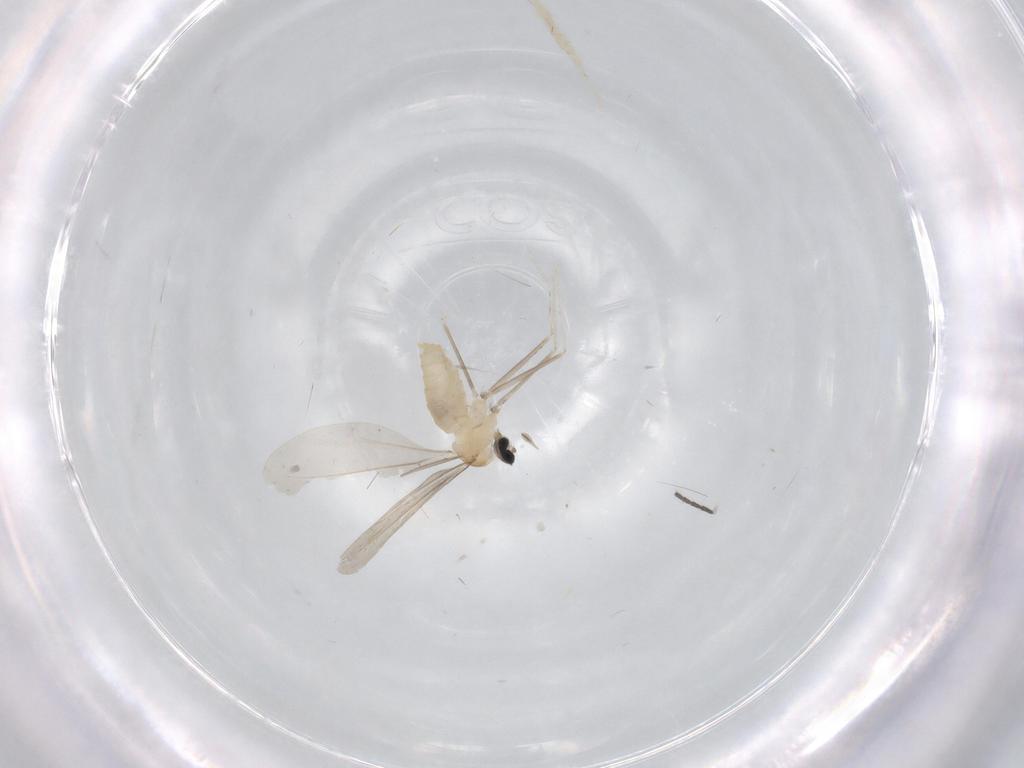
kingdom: Animalia
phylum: Arthropoda
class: Insecta
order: Diptera
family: Cecidomyiidae
